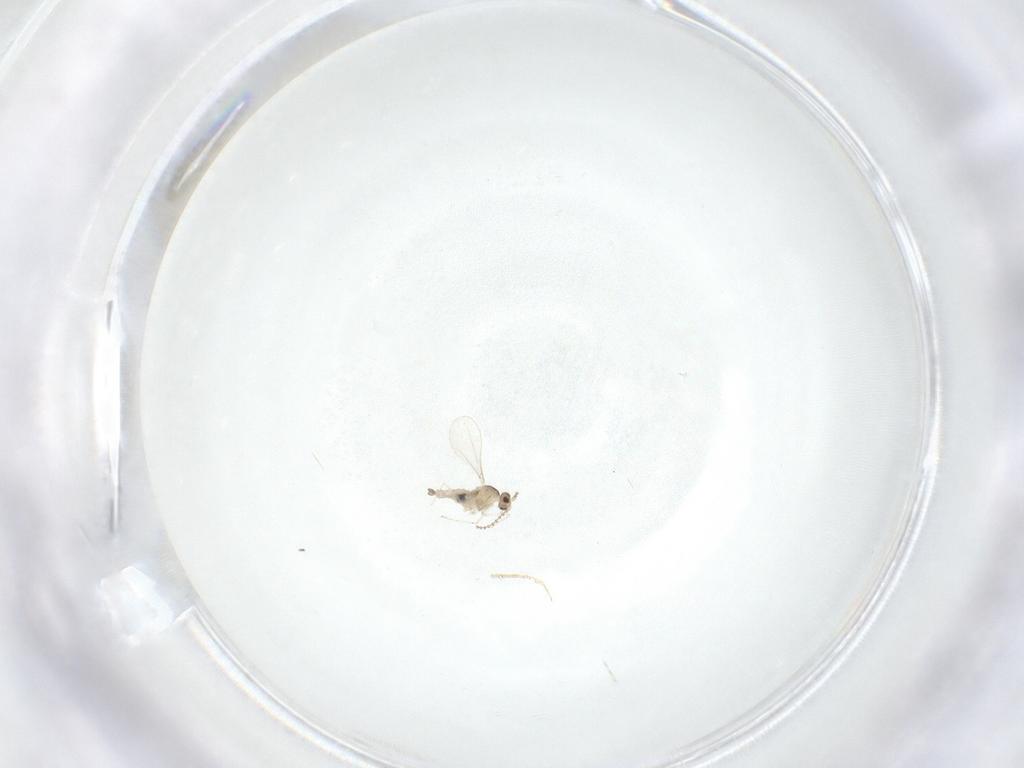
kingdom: Animalia
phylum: Arthropoda
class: Insecta
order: Diptera
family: Cecidomyiidae
